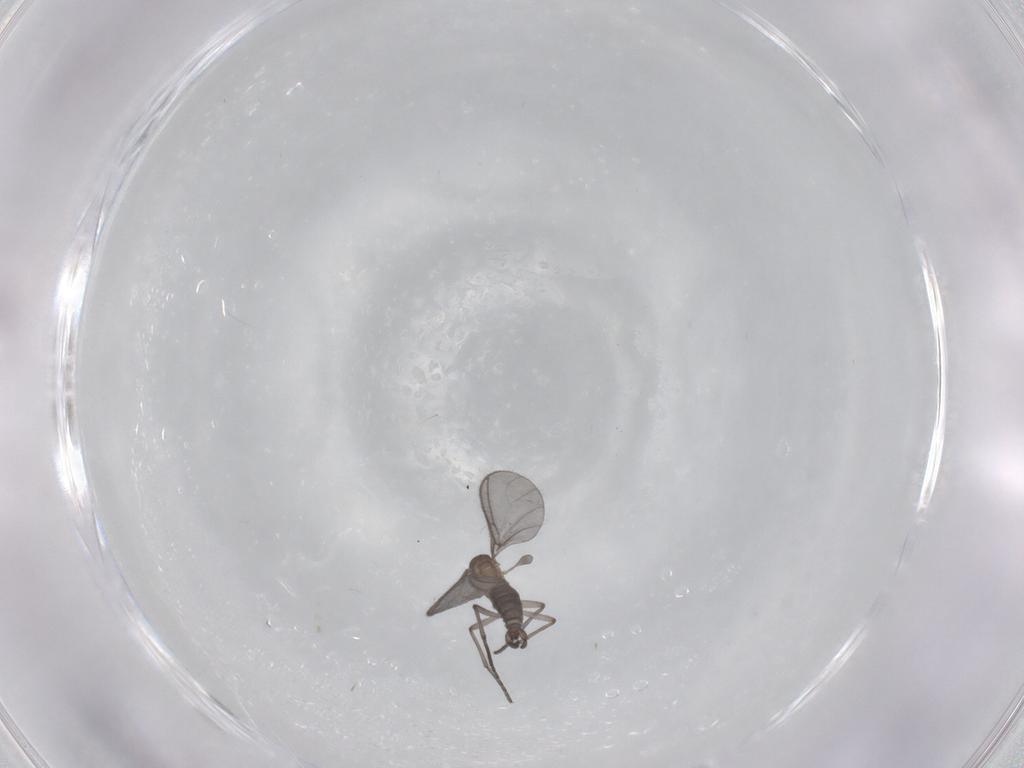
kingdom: Animalia
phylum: Arthropoda
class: Insecta
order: Diptera
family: Sciaridae
